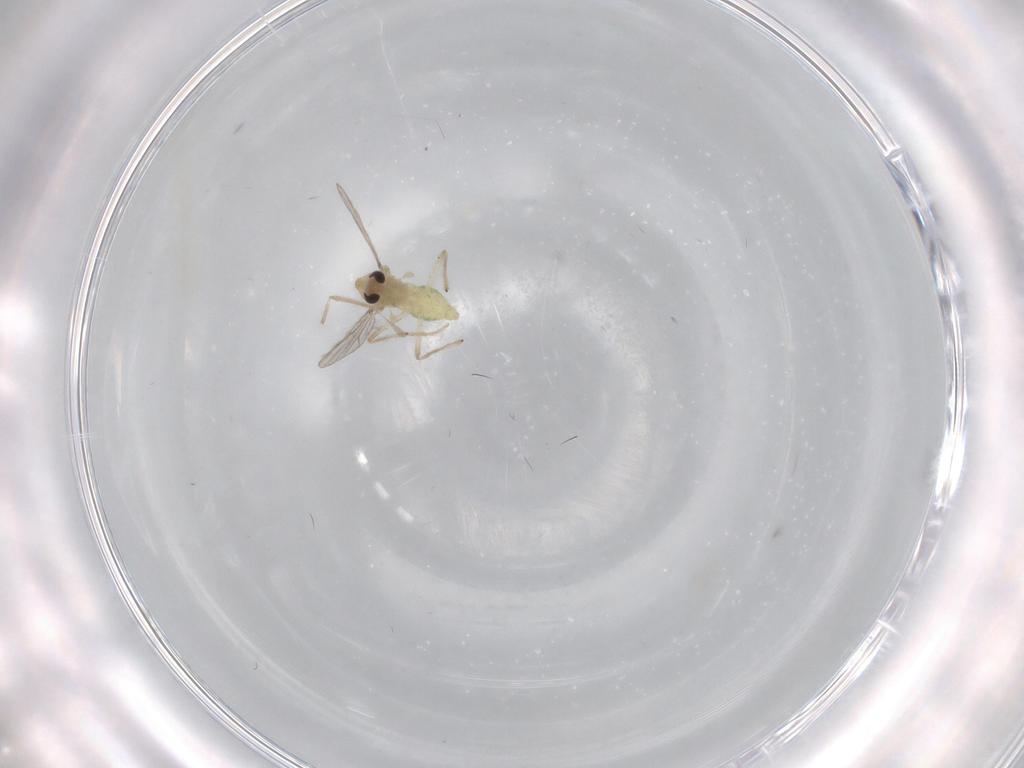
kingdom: Animalia
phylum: Arthropoda
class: Insecta
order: Diptera
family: Chironomidae
